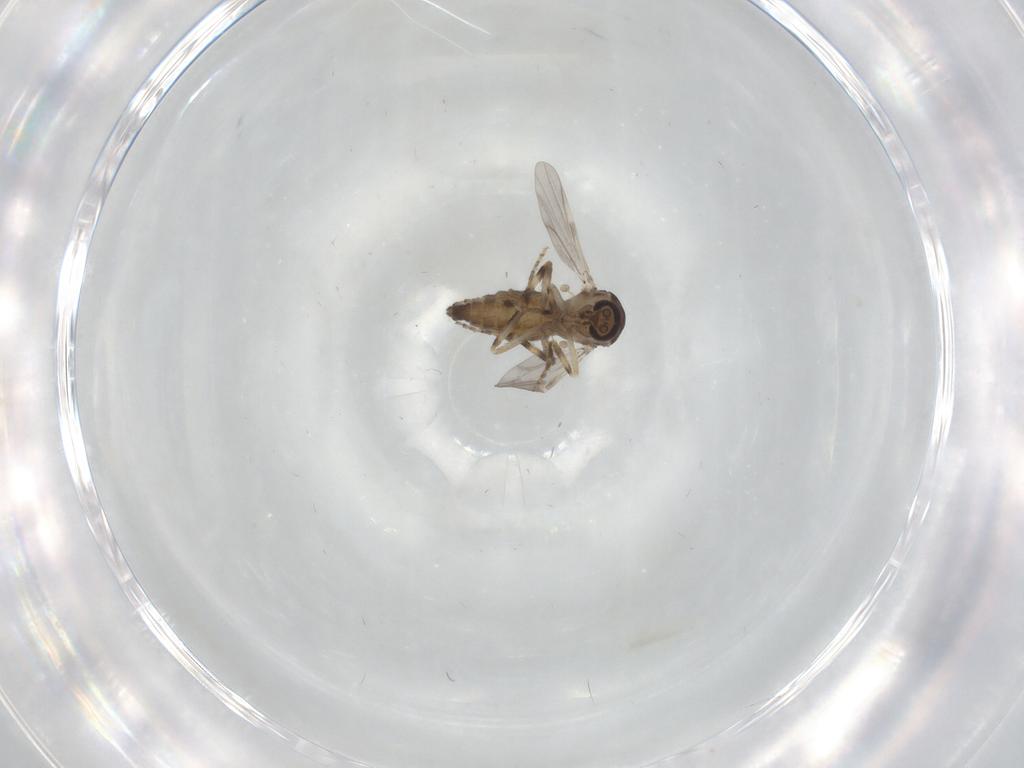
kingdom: Animalia
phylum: Arthropoda
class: Insecta
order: Diptera
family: Ceratopogonidae
